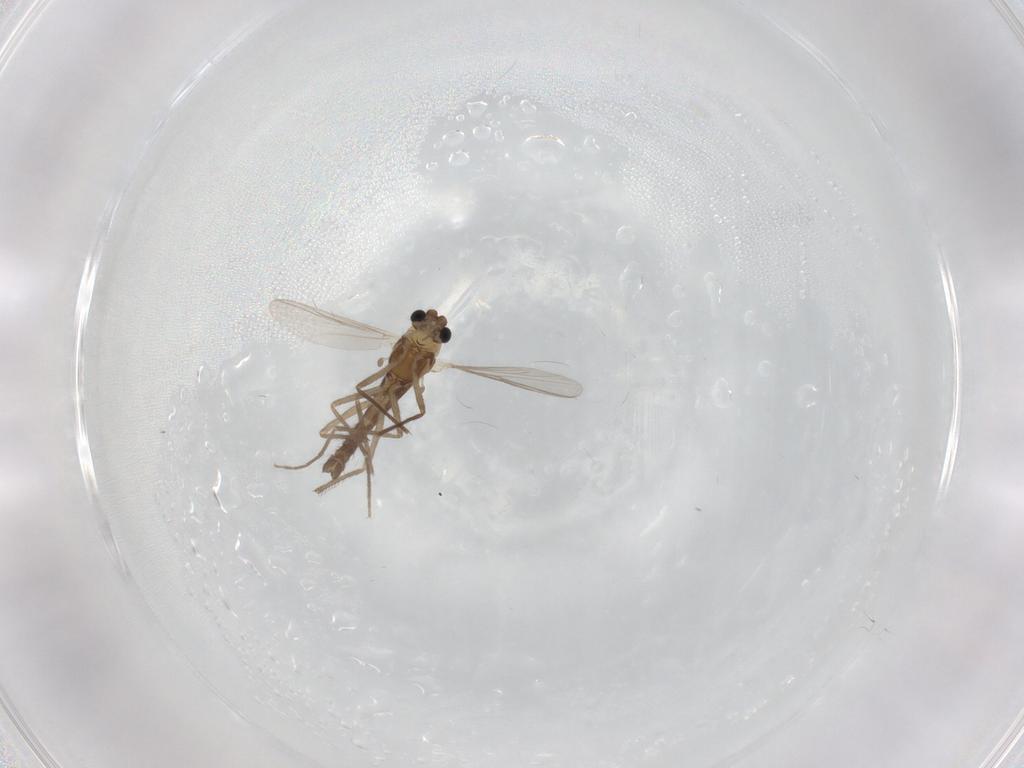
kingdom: Animalia
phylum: Arthropoda
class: Insecta
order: Diptera
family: Chironomidae
